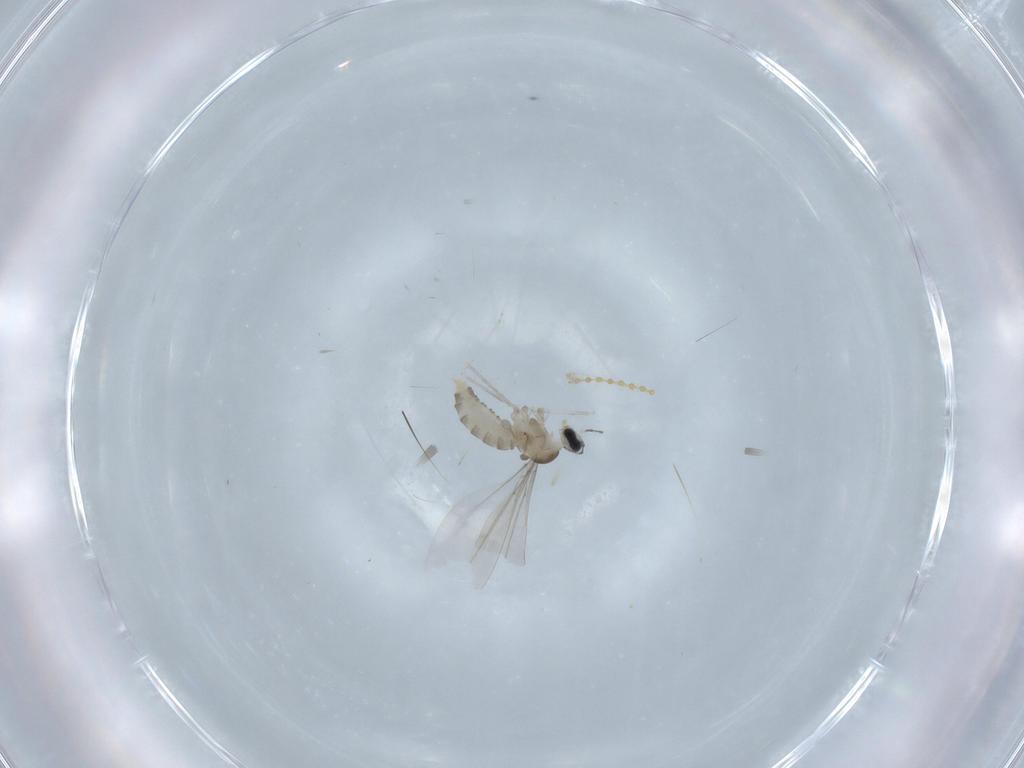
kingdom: Animalia
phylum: Arthropoda
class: Insecta
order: Diptera
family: Cecidomyiidae
